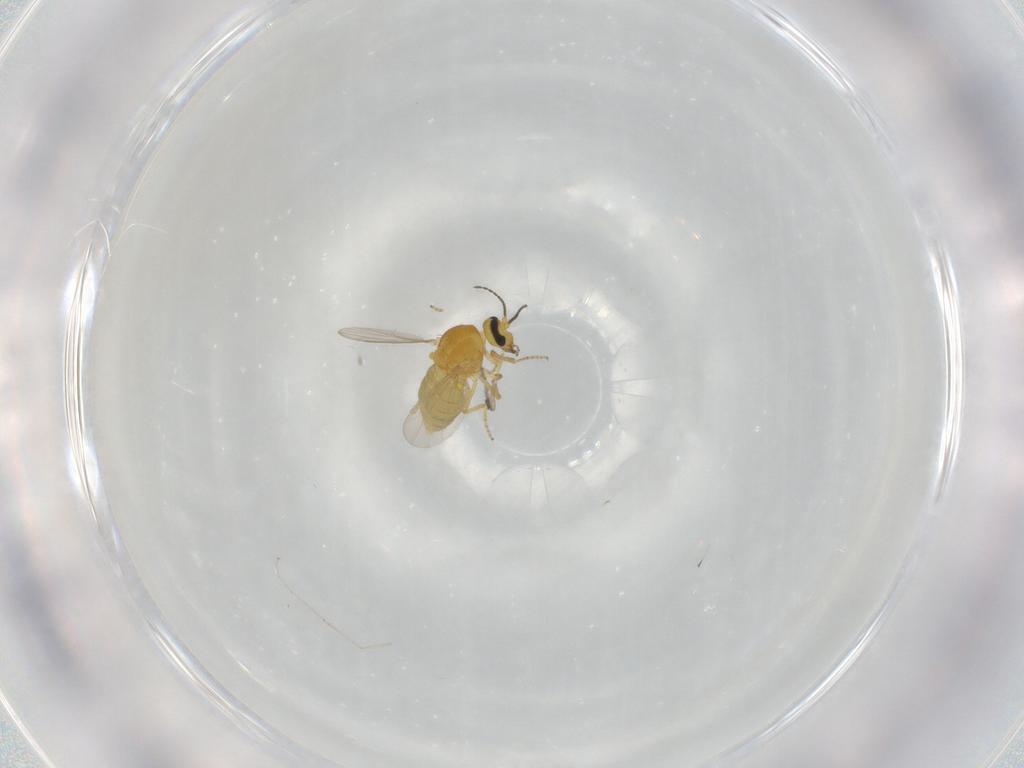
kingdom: Animalia
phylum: Arthropoda
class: Insecta
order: Diptera
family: Ceratopogonidae
